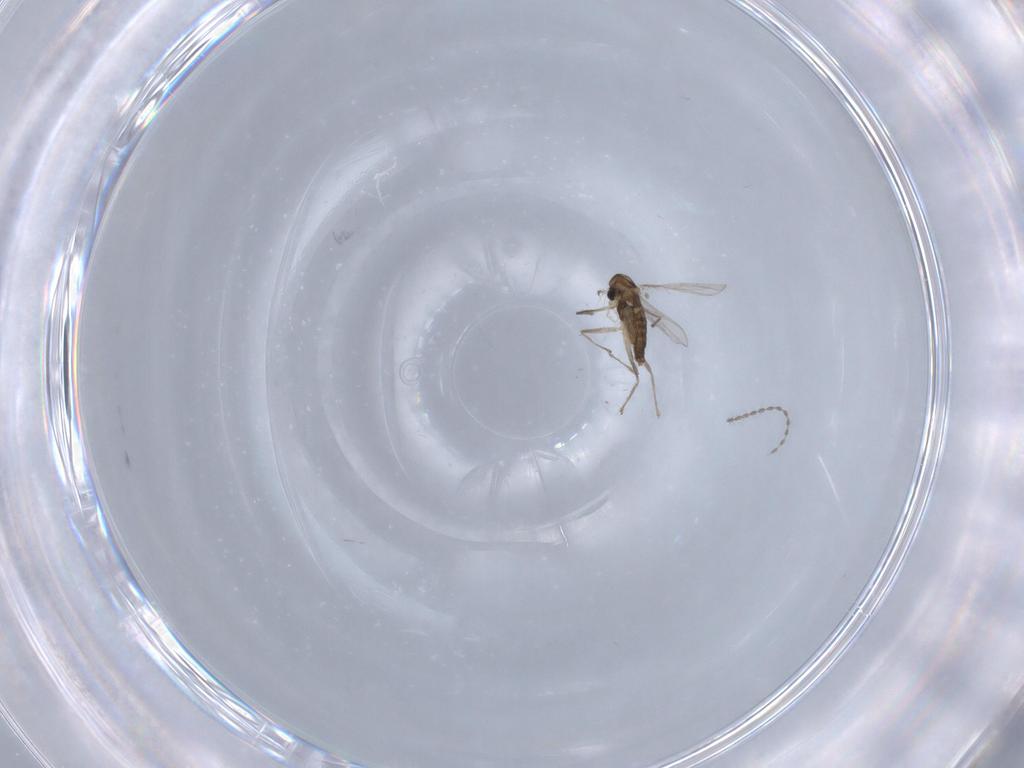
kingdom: Animalia
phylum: Arthropoda
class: Insecta
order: Diptera
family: Chironomidae
